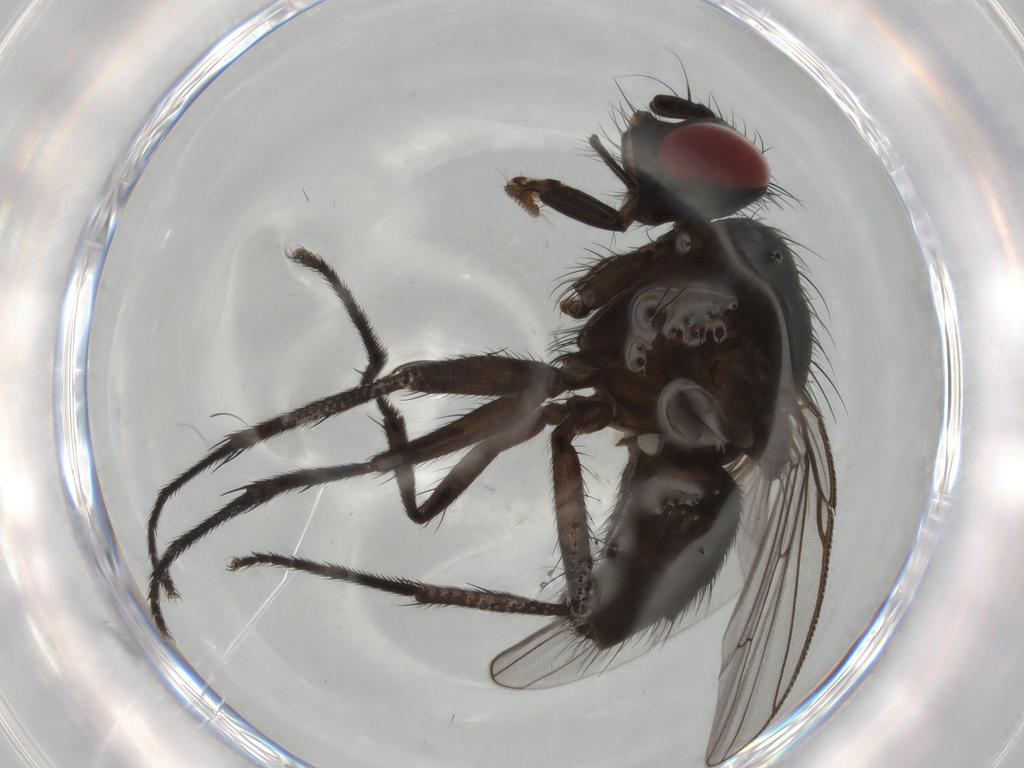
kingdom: Animalia
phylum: Arthropoda
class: Insecta
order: Diptera
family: Muscidae
